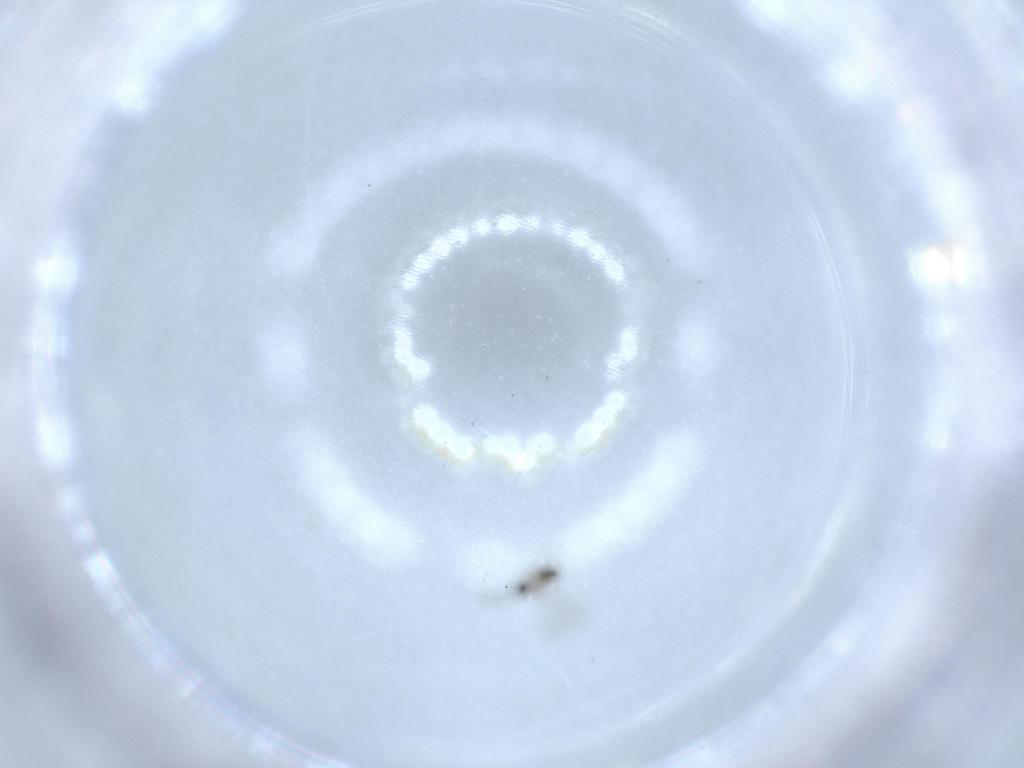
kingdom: Animalia
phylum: Arthropoda
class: Insecta
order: Hymenoptera
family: Mymaridae
